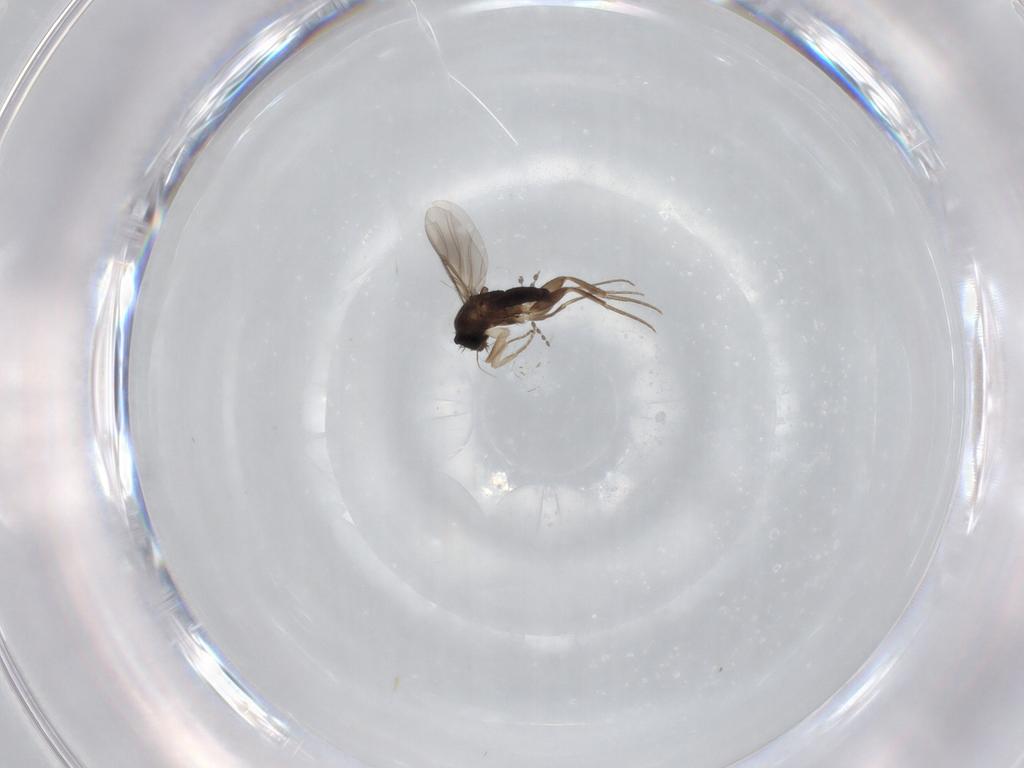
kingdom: Animalia
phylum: Arthropoda
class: Insecta
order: Diptera
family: Phoridae
